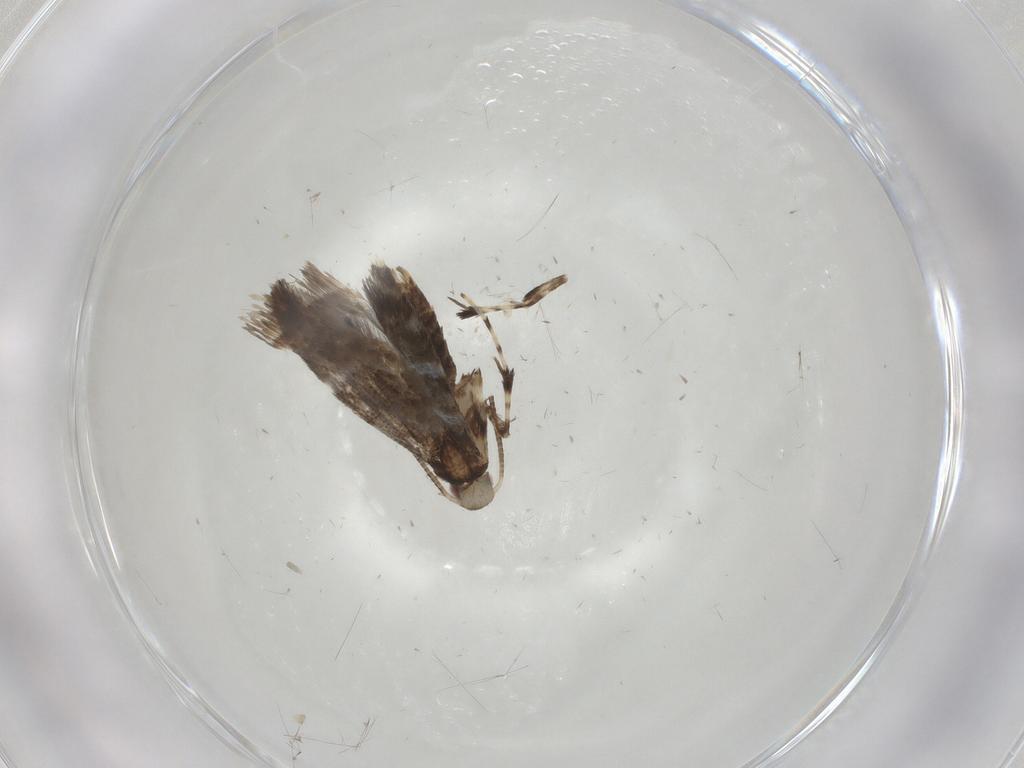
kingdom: Animalia
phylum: Arthropoda
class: Insecta
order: Lepidoptera
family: Gracillariidae
